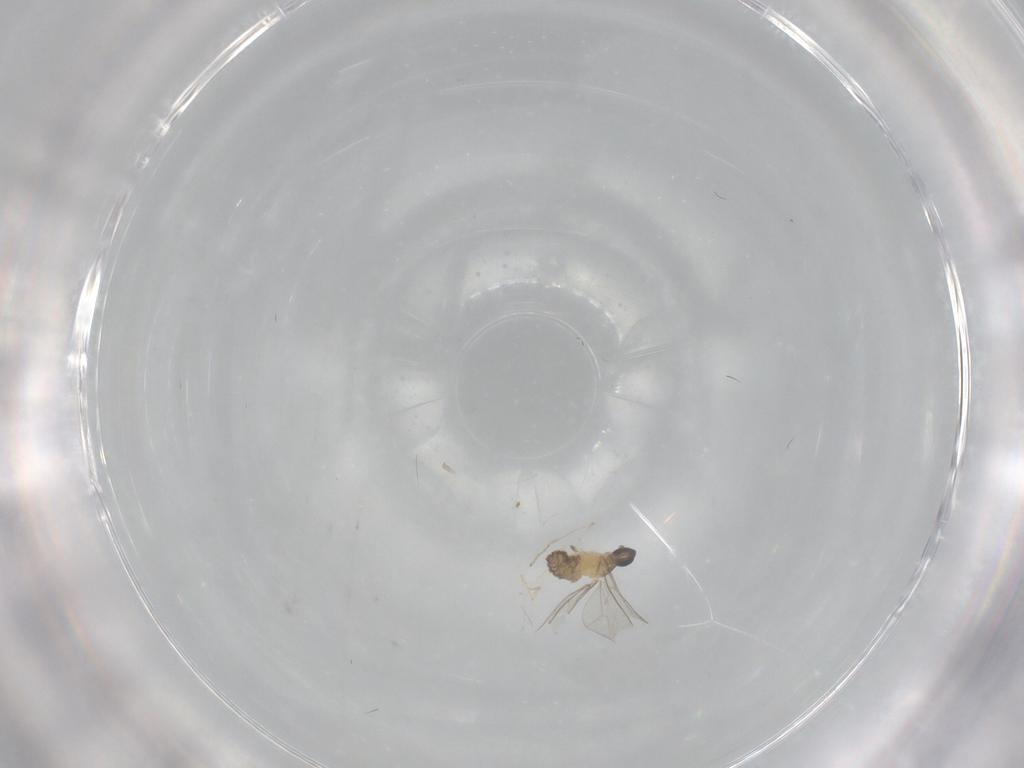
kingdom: Animalia
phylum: Arthropoda
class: Insecta
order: Diptera
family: Cecidomyiidae
